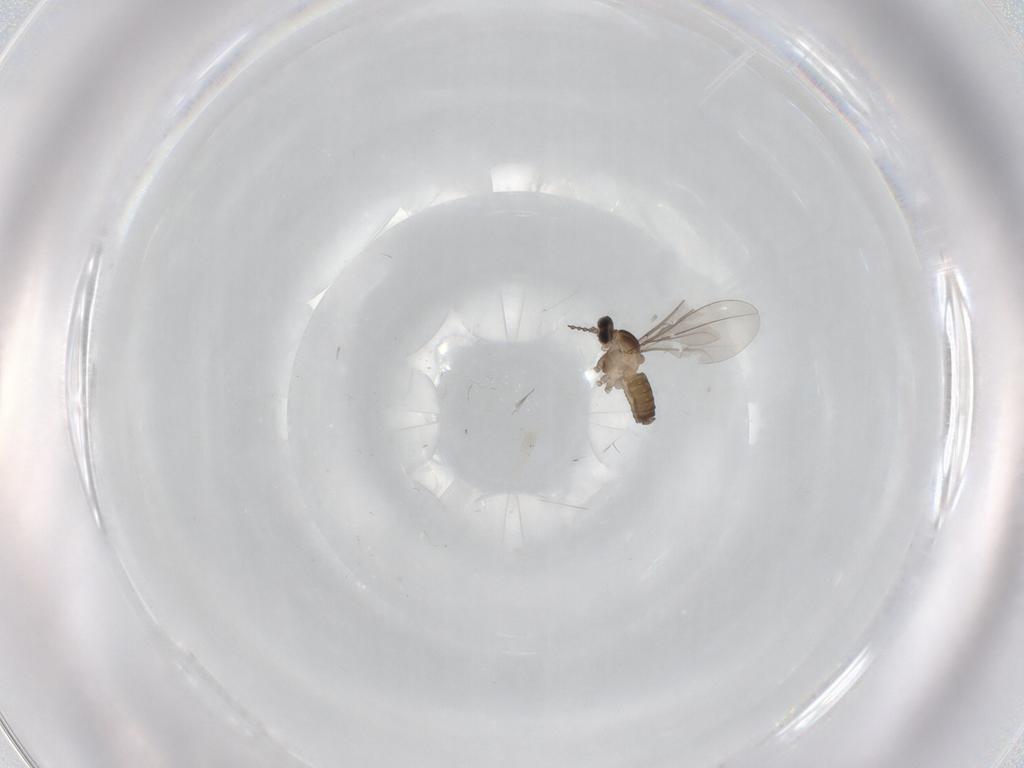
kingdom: Animalia
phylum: Arthropoda
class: Insecta
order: Diptera
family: Cecidomyiidae
